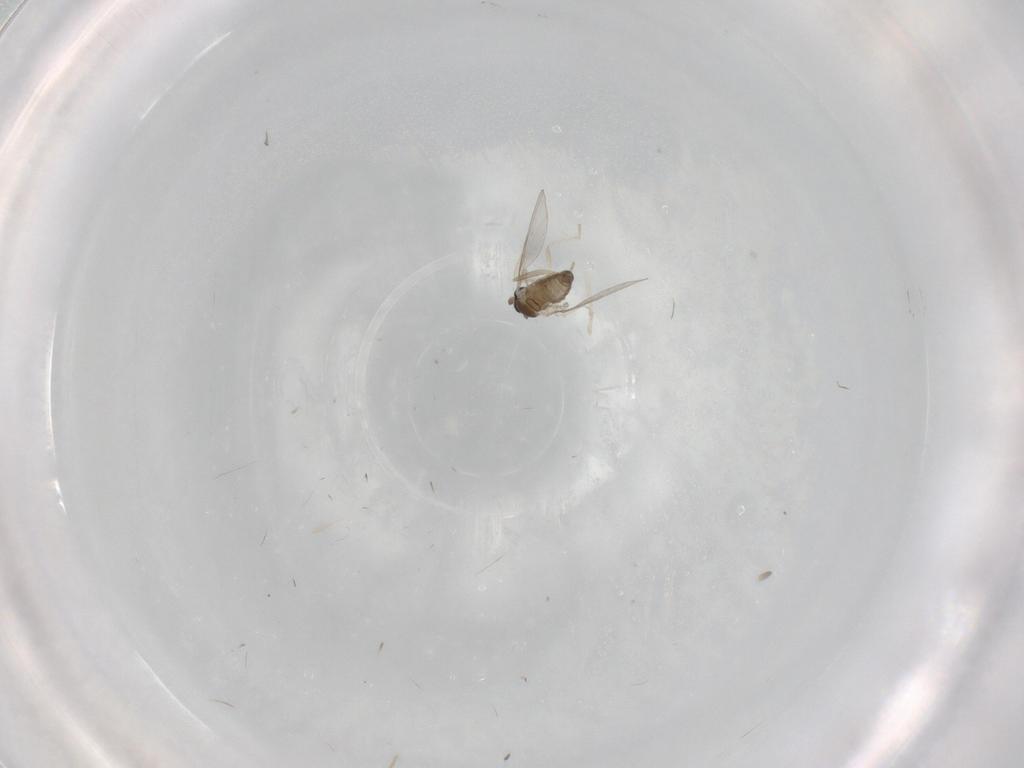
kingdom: Animalia
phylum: Arthropoda
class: Insecta
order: Diptera
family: Cecidomyiidae
